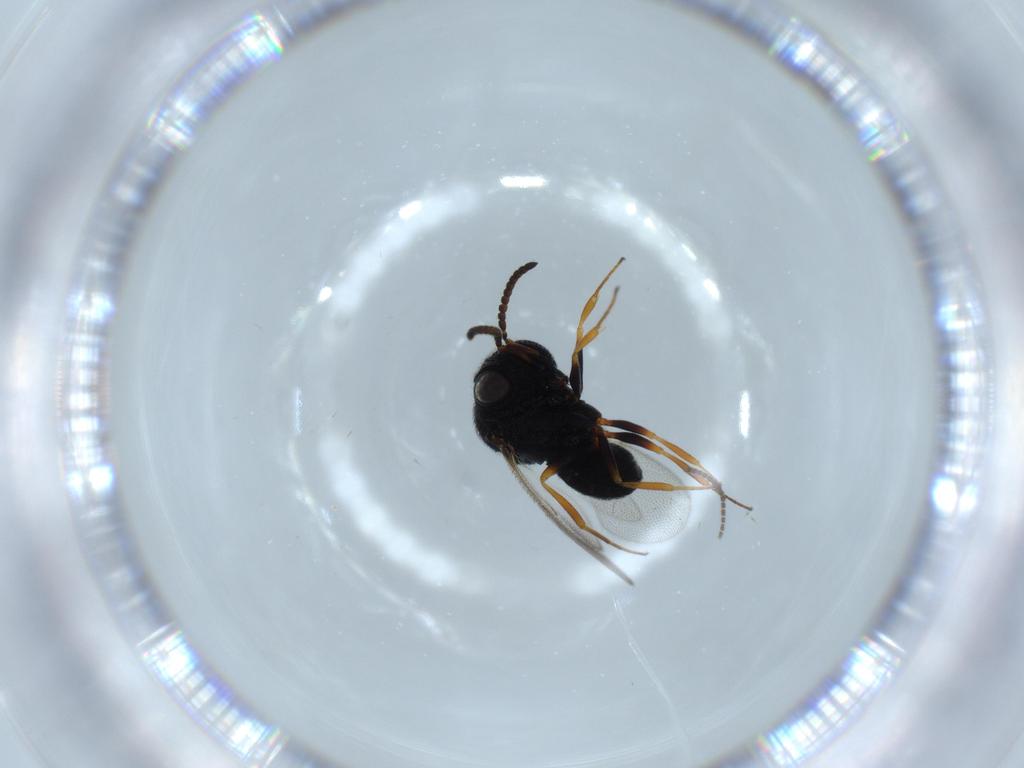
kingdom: Animalia
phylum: Arthropoda
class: Insecta
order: Hymenoptera
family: Scelionidae
